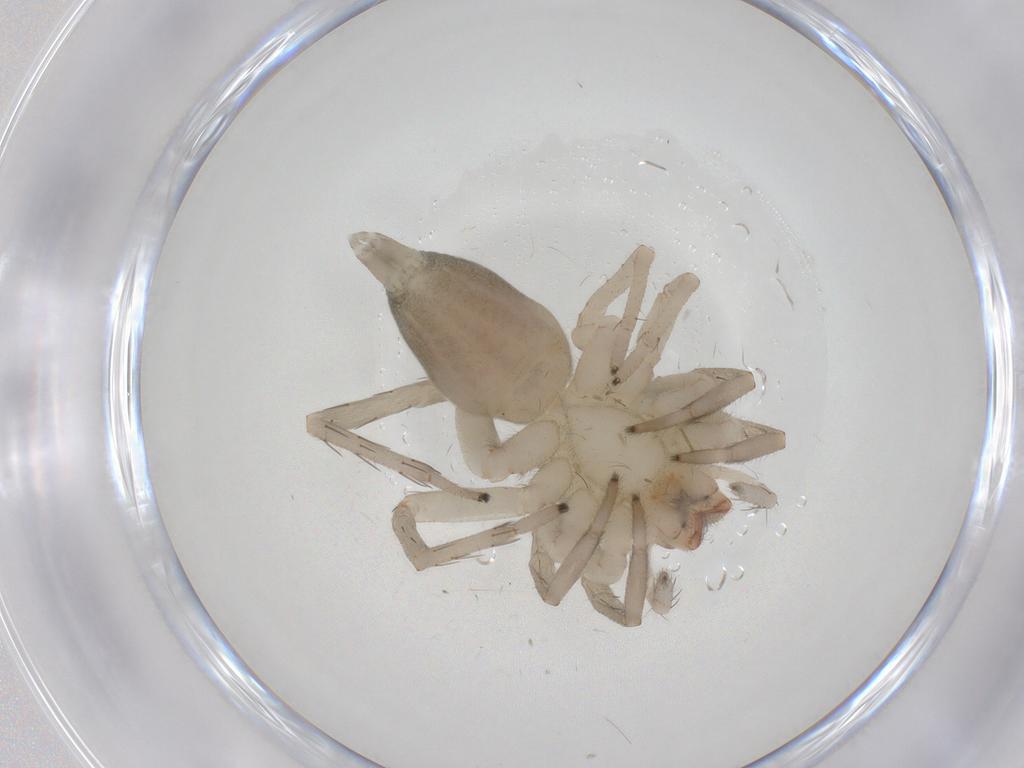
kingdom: Animalia
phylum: Arthropoda
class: Arachnida
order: Araneae
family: Clubionidae
